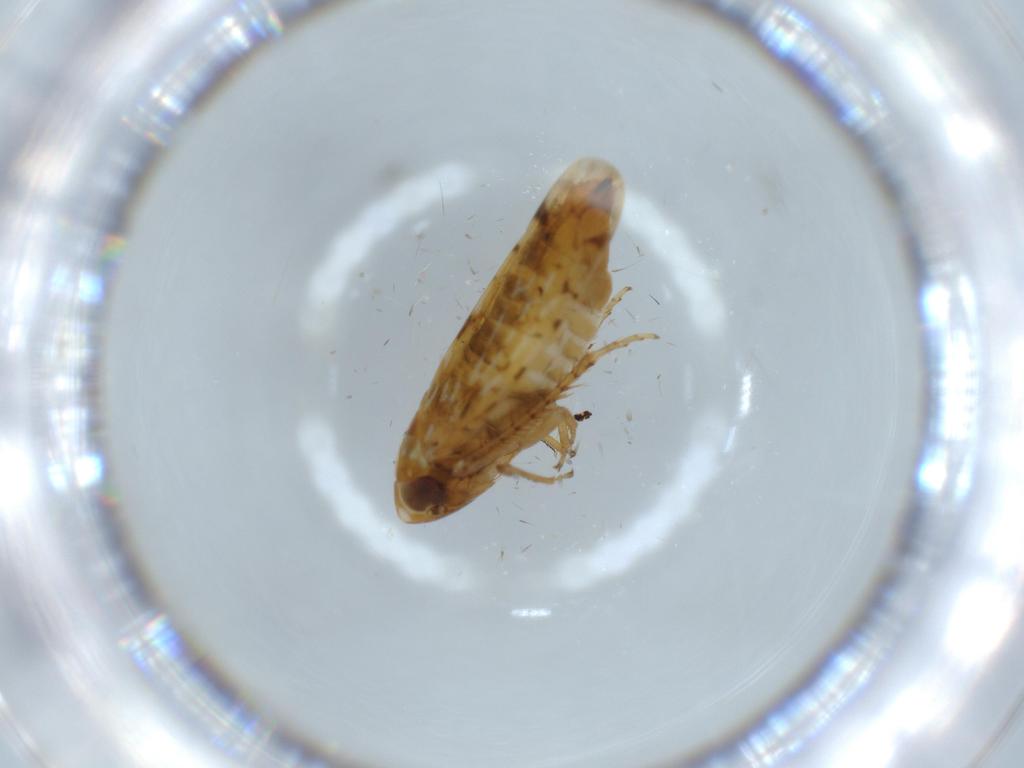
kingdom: Animalia
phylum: Arthropoda
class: Insecta
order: Hemiptera
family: Cicadellidae
